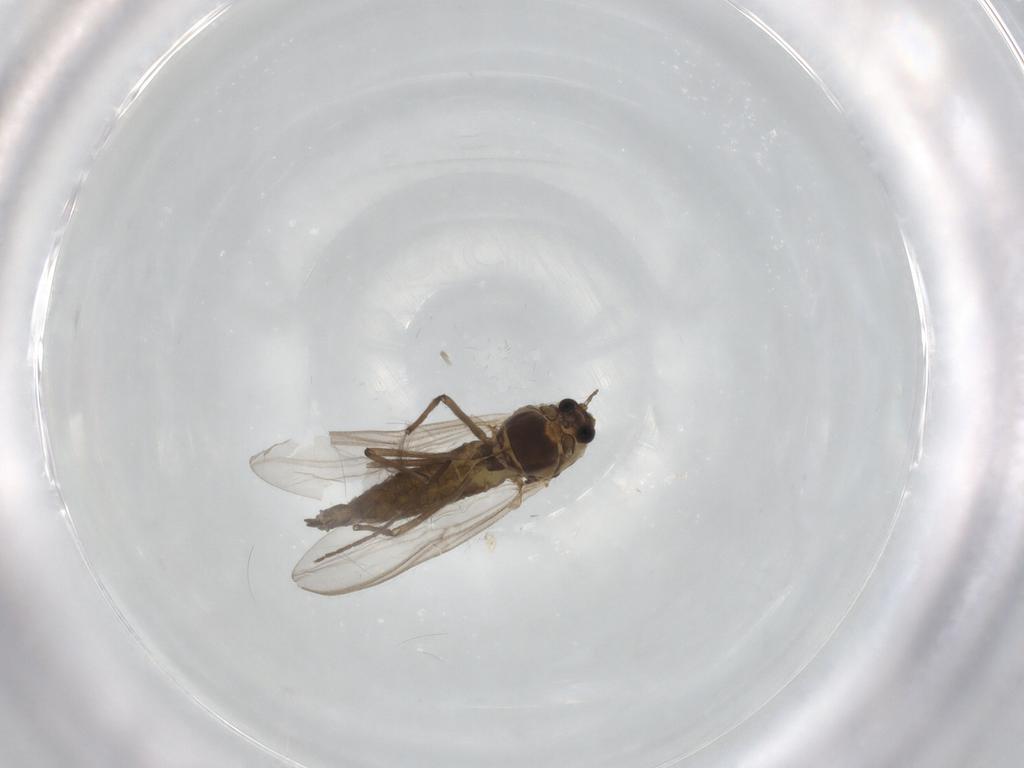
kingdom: Animalia
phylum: Arthropoda
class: Insecta
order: Diptera
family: Chironomidae
